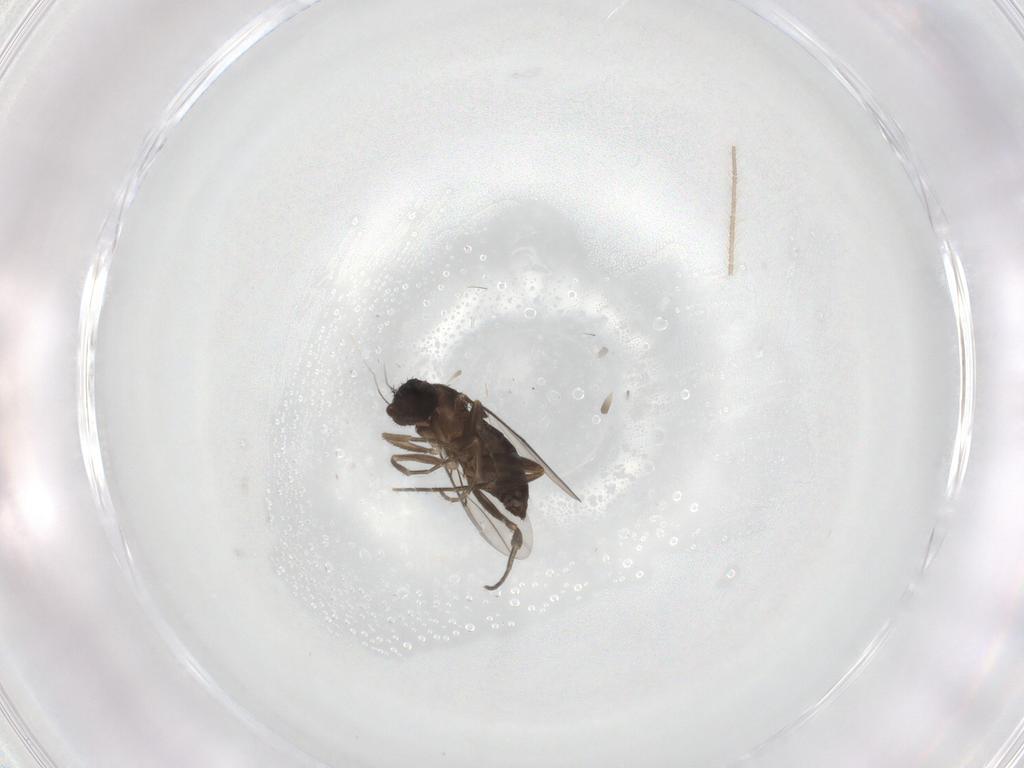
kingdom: Animalia
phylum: Arthropoda
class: Insecta
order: Diptera
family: Phoridae
